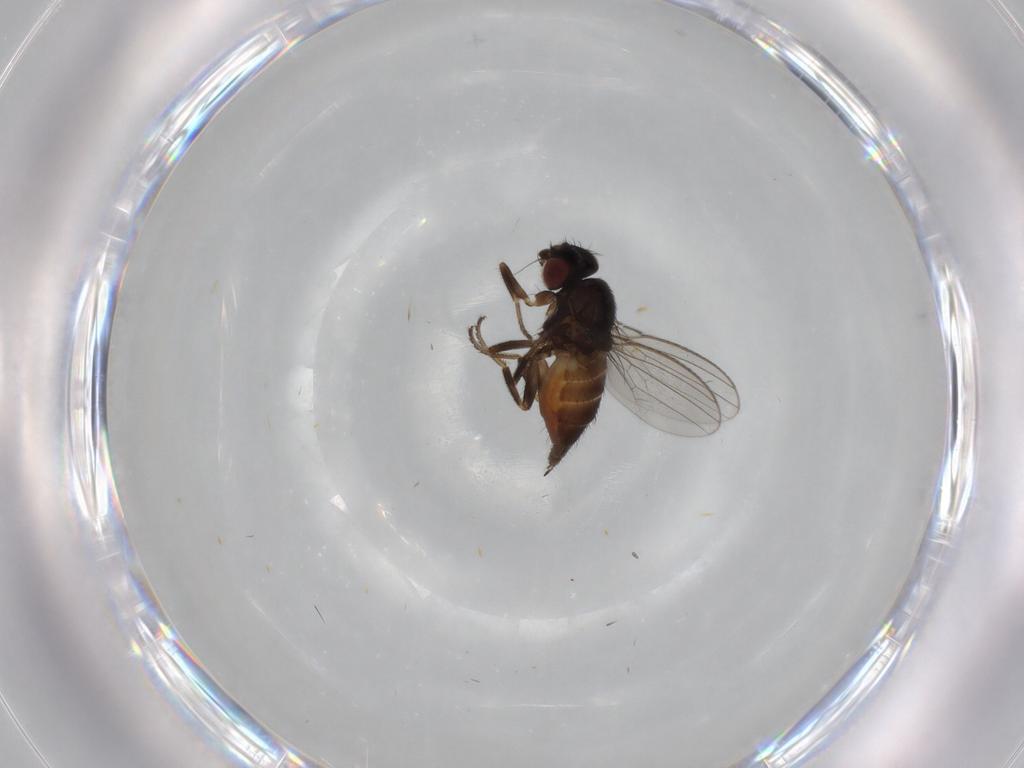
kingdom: Animalia
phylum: Arthropoda
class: Insecta
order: Diptera
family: Milichiidae
